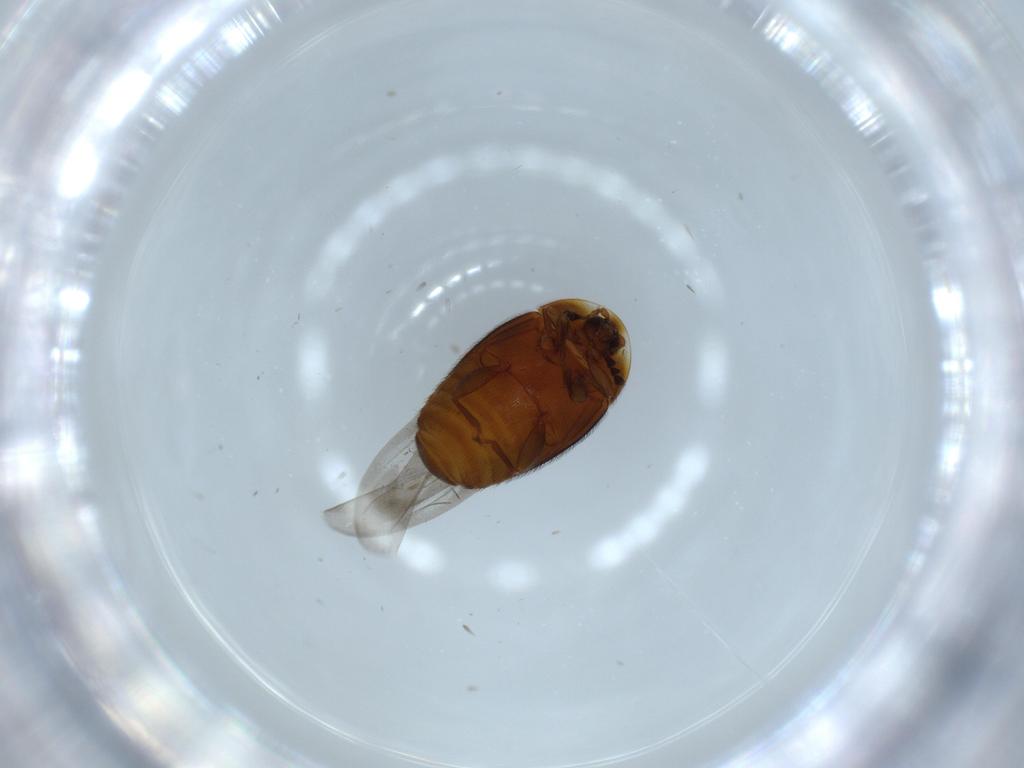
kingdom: Animalia
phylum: Arthropoda
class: Insecta
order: Coleoptera
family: Corylophidae
